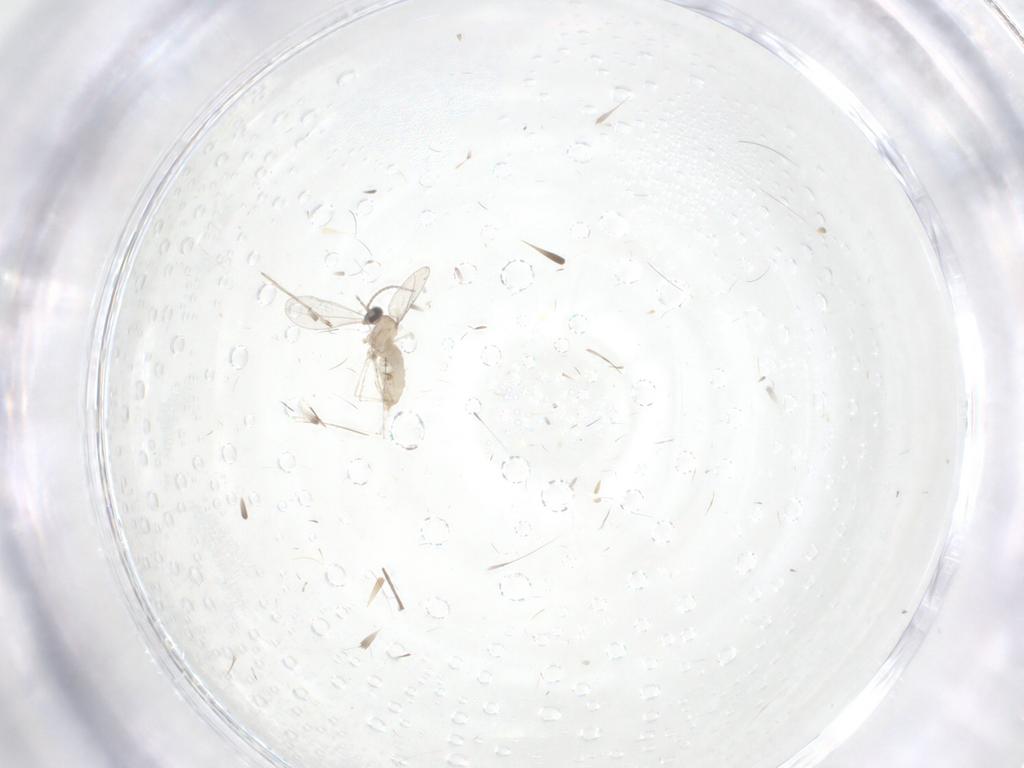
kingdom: Animalia
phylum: Arthropoda
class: Insecta
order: Diptera
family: Cecidomyiidae
